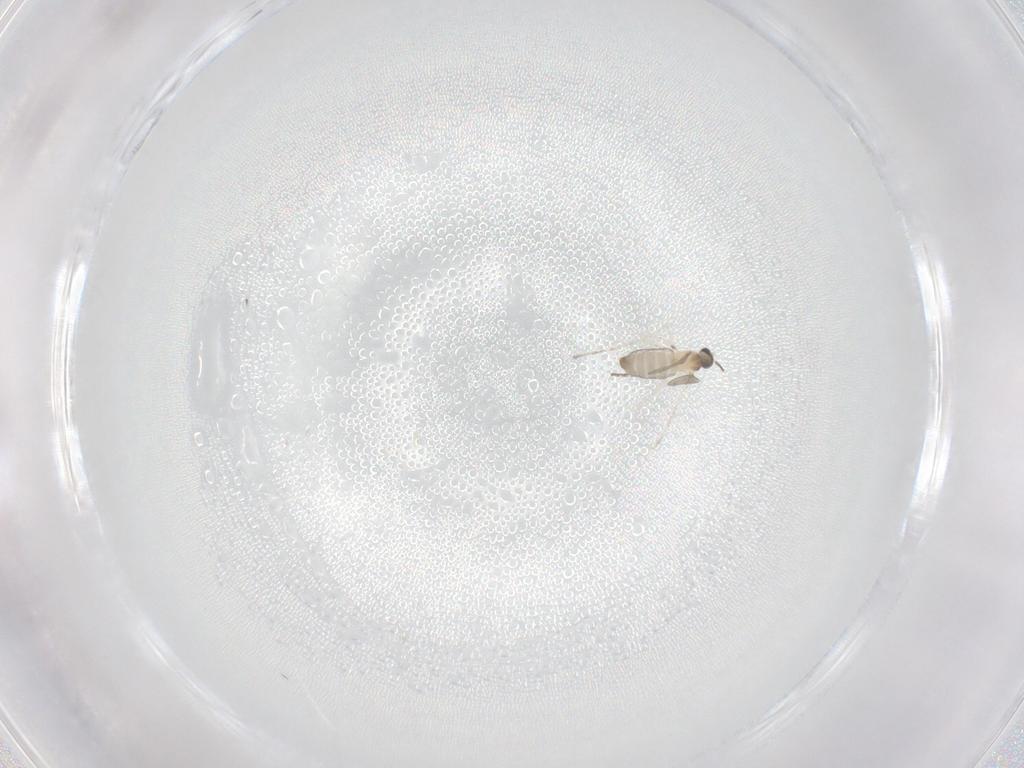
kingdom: Animalia
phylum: Arthropoda
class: Insecta
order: Diptera
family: Cecidomyiidae
